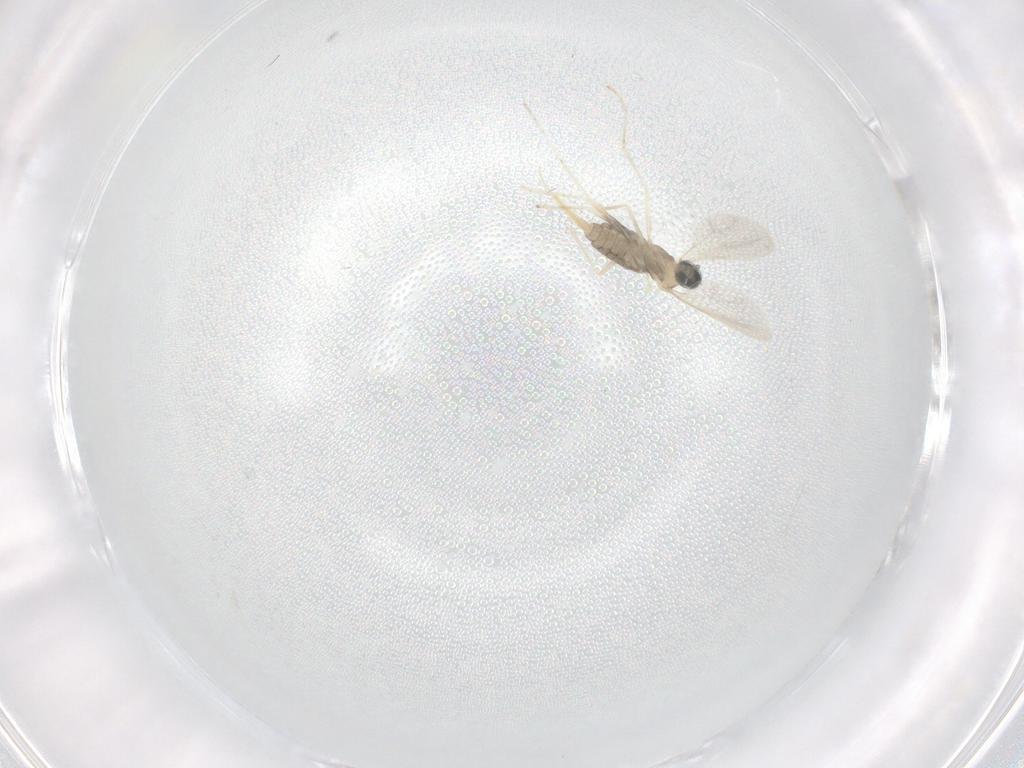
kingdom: Animalia
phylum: Arthropoda
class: Insecta
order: Diptera
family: Cecidomyiidae
